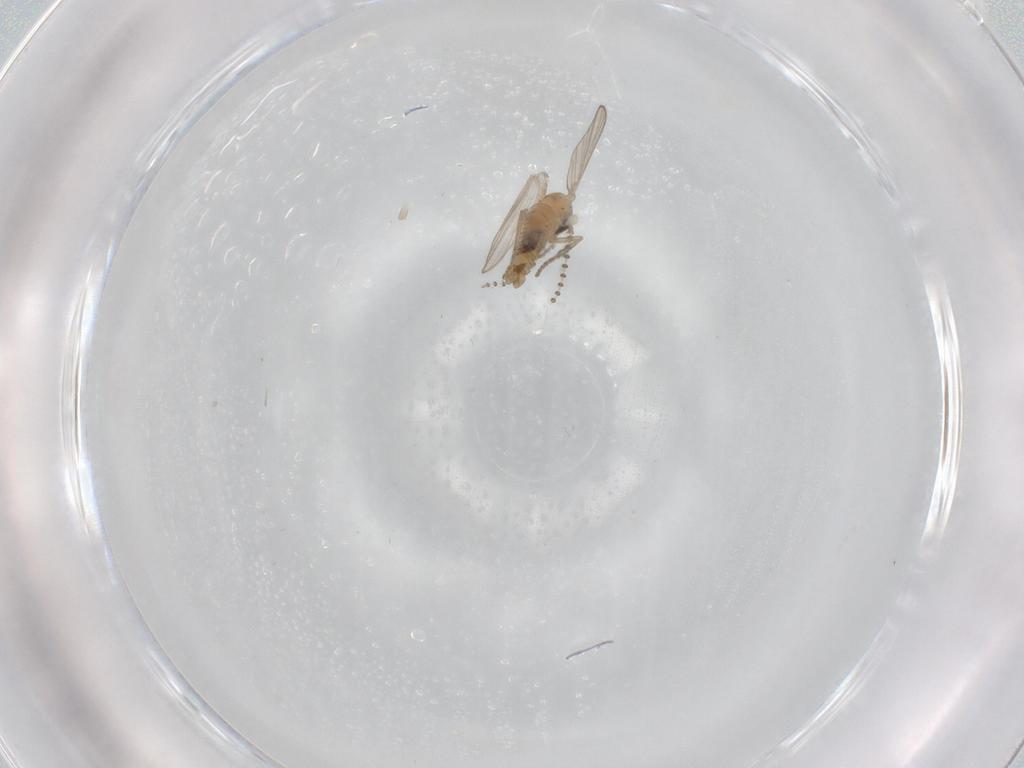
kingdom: Animalia
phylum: Arthropoda
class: Insecta
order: Diptera
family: Psychodidae
